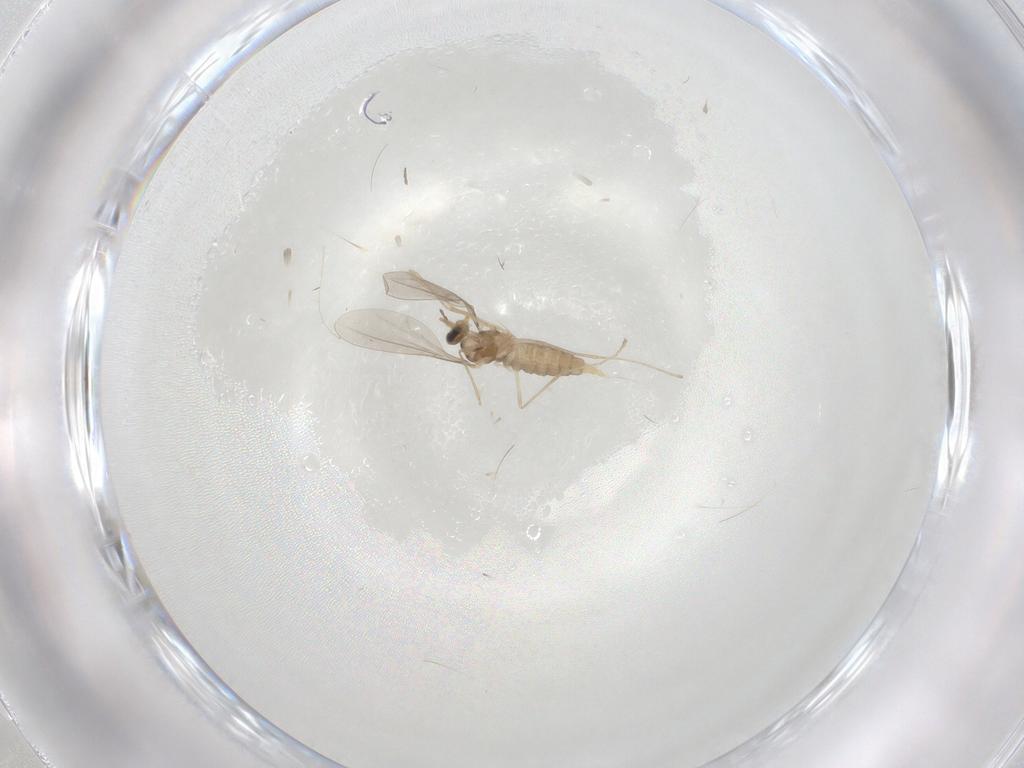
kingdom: Animalia
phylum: Arthropoda
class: Insecta
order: Diptera
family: Cecidomyiidae
